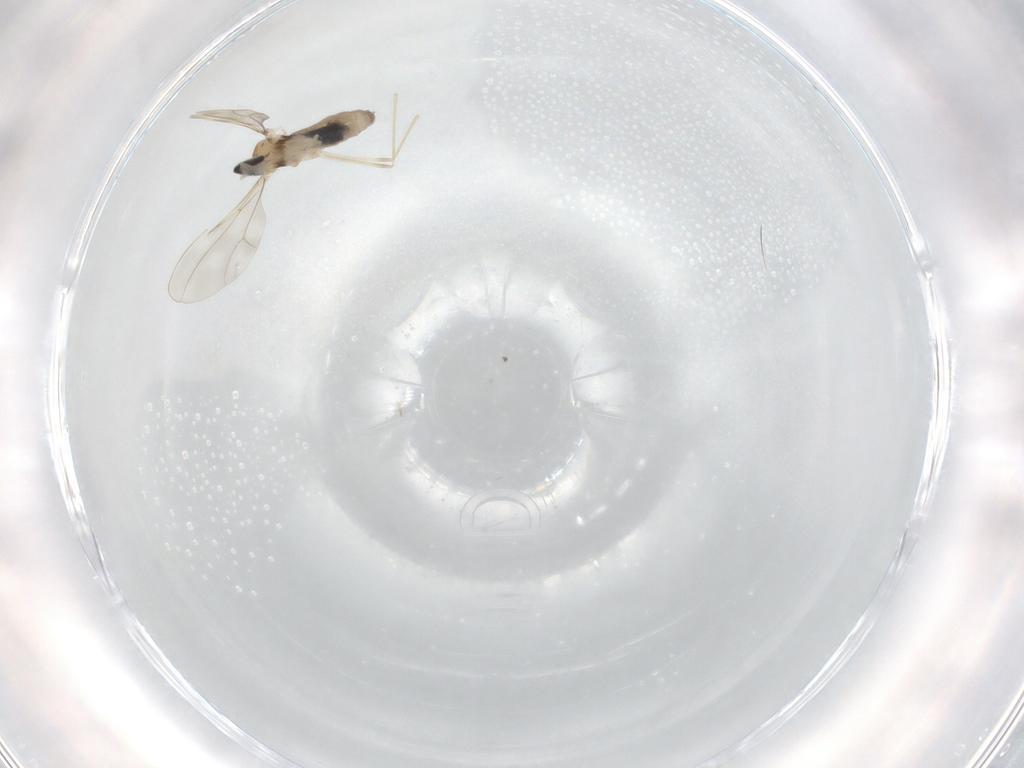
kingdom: Animalia
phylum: Arthropoda
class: Insecta
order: Diptera
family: Ceratopogonidae
